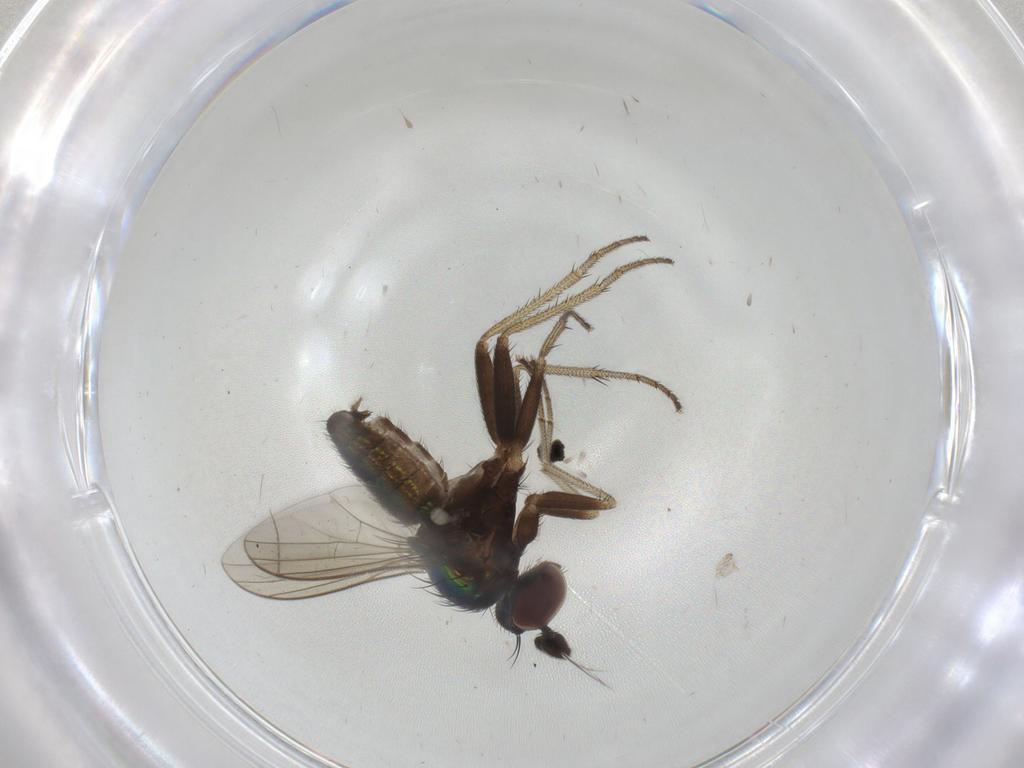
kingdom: Animalia
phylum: Arthropoda
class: Insecta
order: Diptera
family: Dolichopodidae
